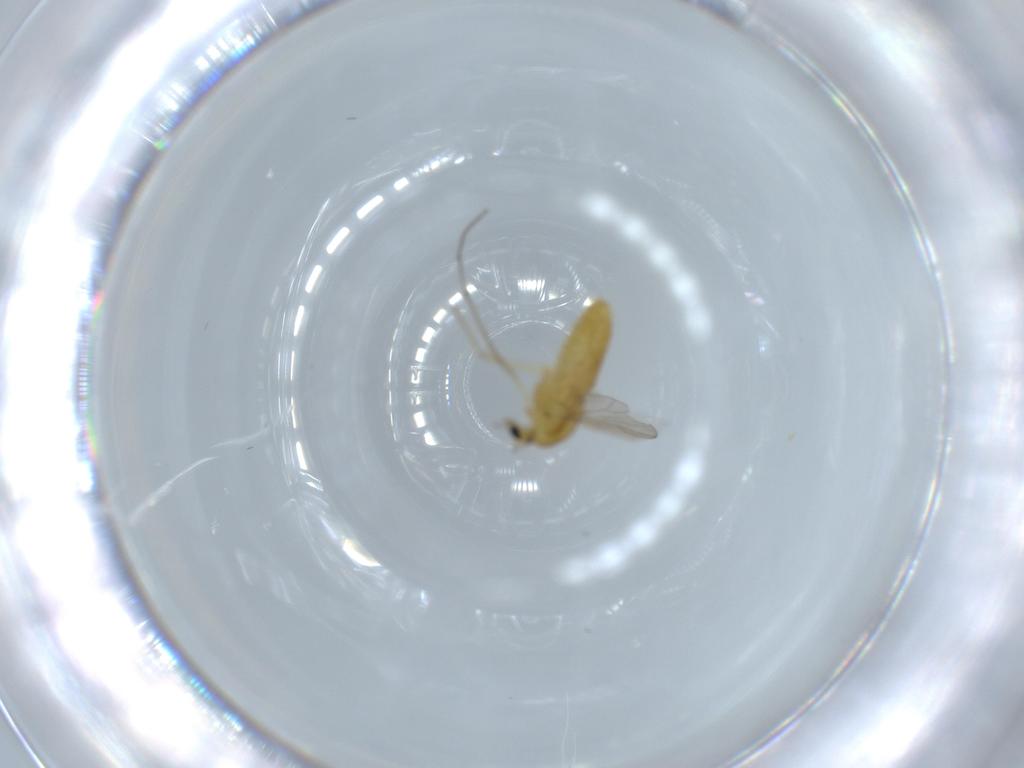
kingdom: Animalia
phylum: Arthropoda
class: Insecta
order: Diptera
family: Chironomidae
